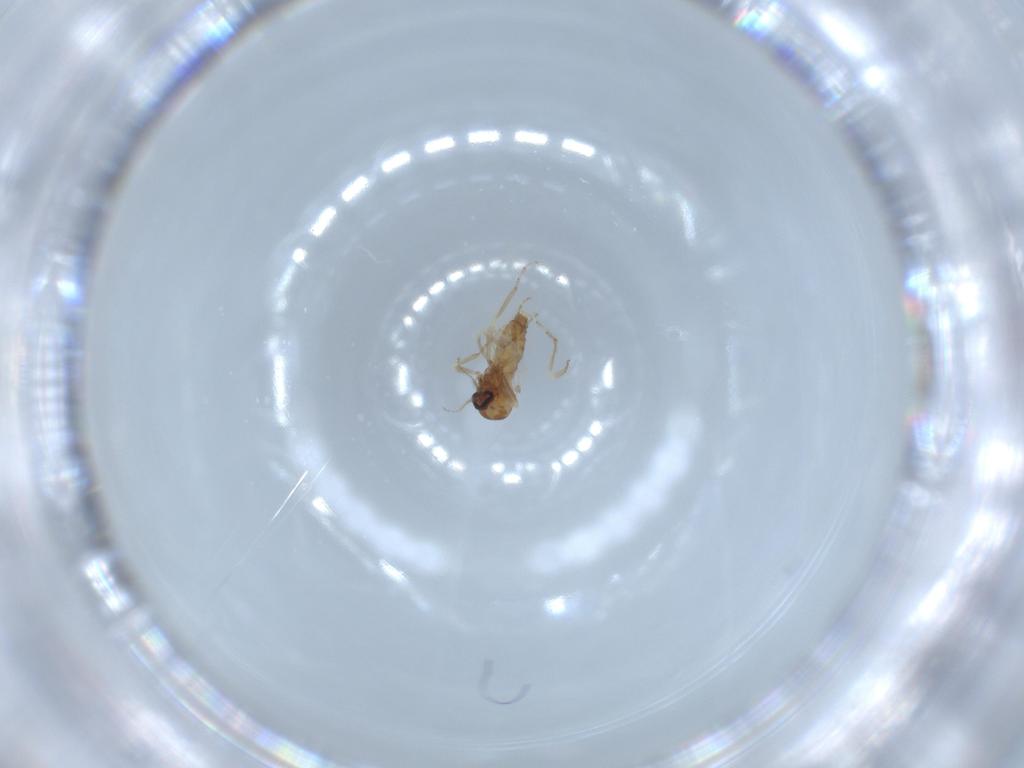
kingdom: Animalia
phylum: Arthropoda
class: Insecta
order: Diptera
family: Ceratopogonidae
